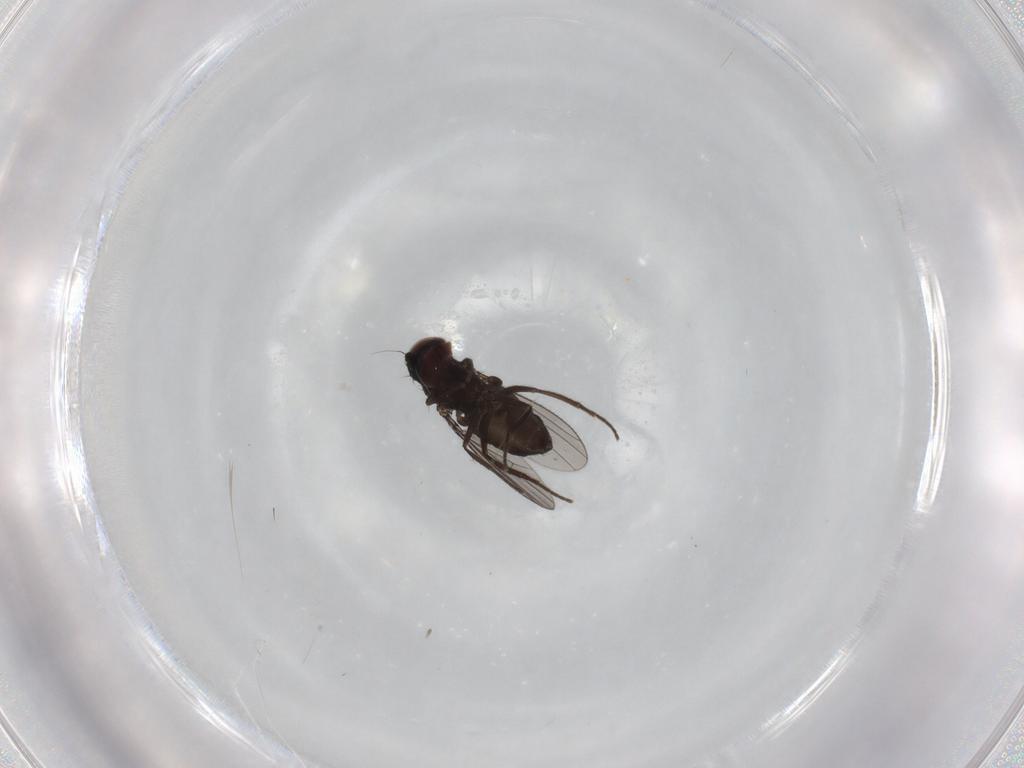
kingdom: Animalia
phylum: Arthropoda
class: Insecta
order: Diptera
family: Dolichopodidae
